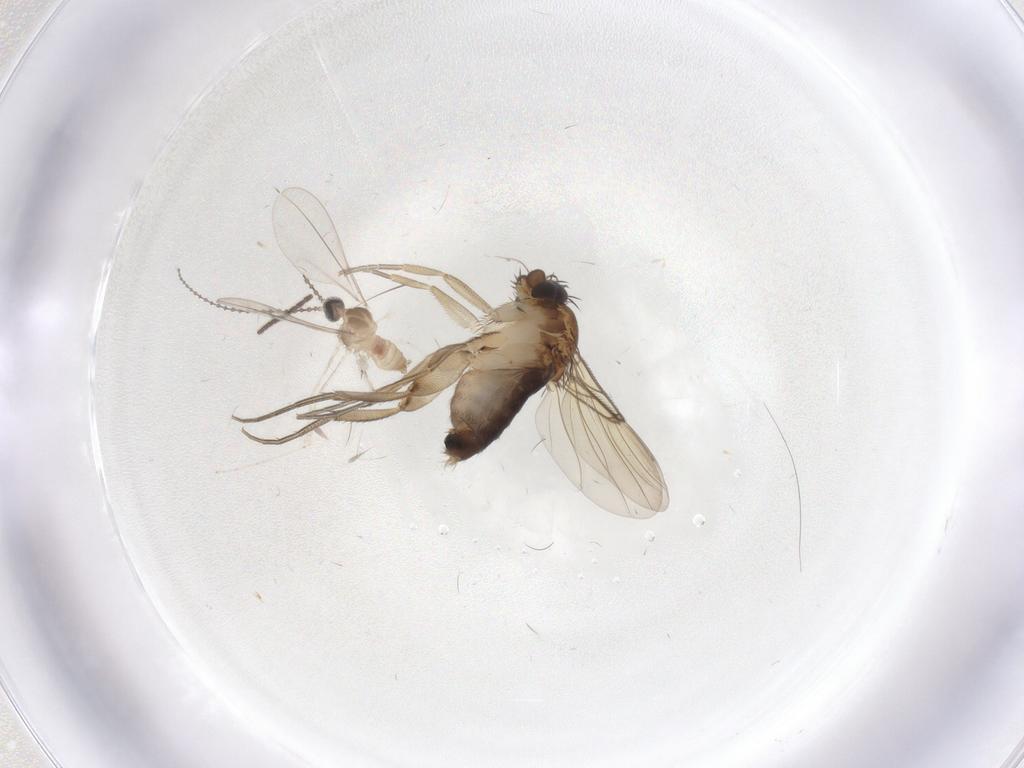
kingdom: Animalia
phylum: Arthropoda
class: Insecta
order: Diptera
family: Phoridae
